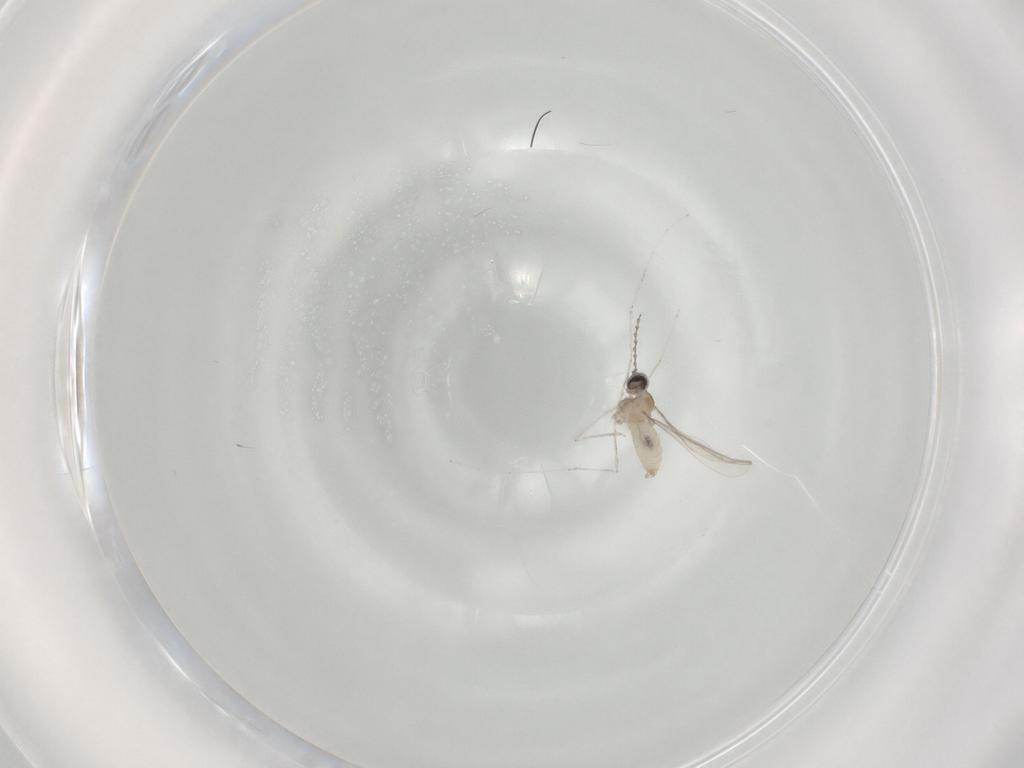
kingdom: Animalia
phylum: Arthropoda
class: Insecta
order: Diptera
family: Cecidomyiidae
